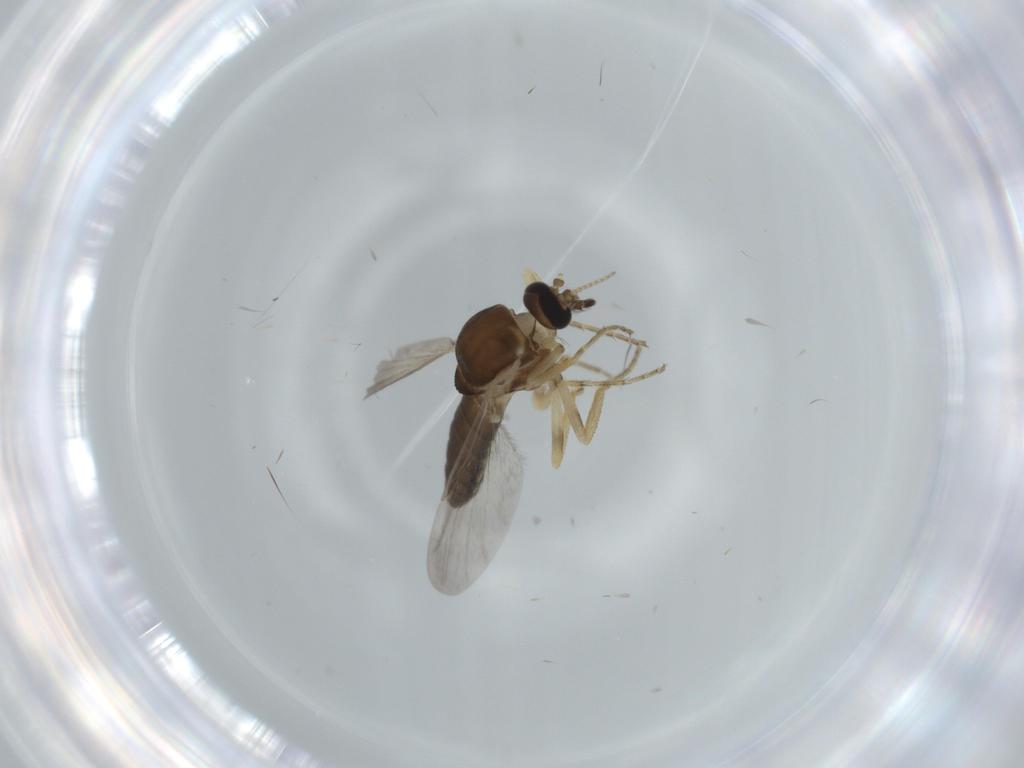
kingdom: Animalia
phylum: Arthropoda
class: Insecta
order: Diptera
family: Ceratopogonidae
